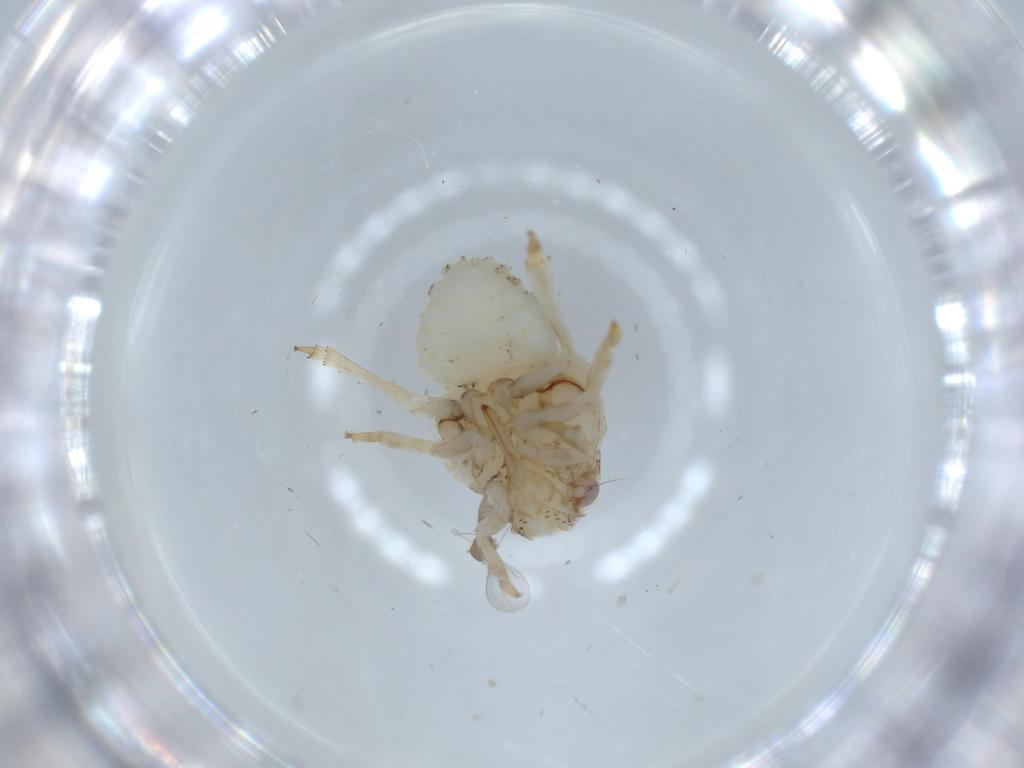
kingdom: Animalia
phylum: Arthropoda
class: Insecta
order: Hemiptera
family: Acanaloniidae
